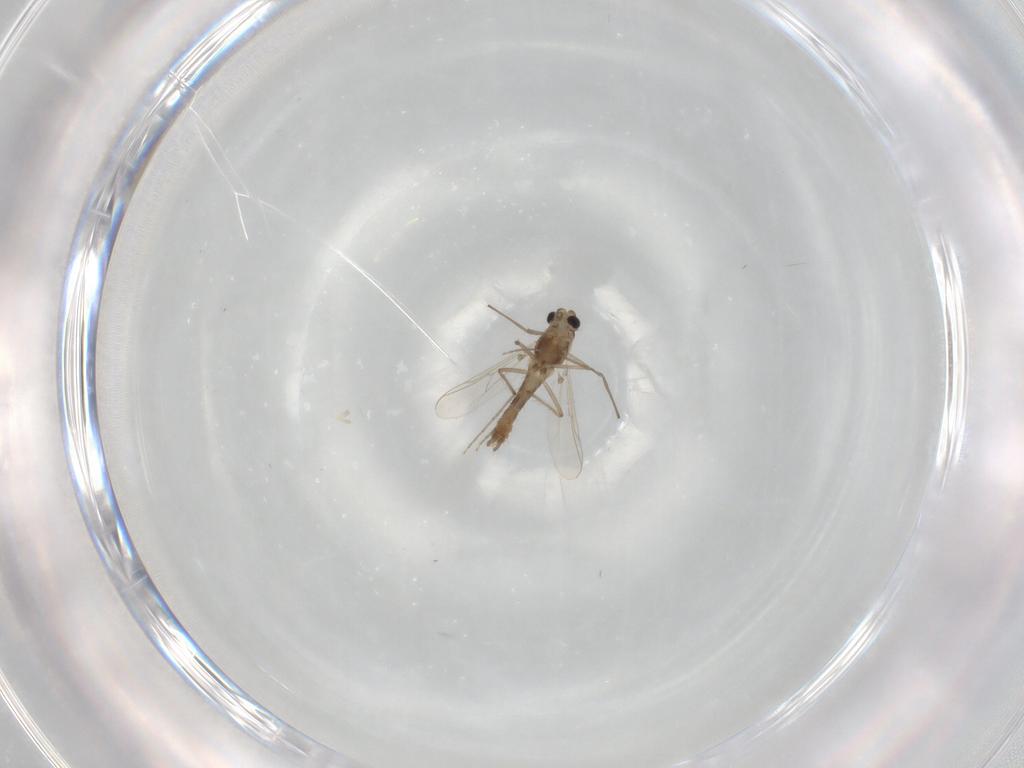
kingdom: Animalia
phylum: Arthropoda
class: Insecta
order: Diptera
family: Chironomidae
